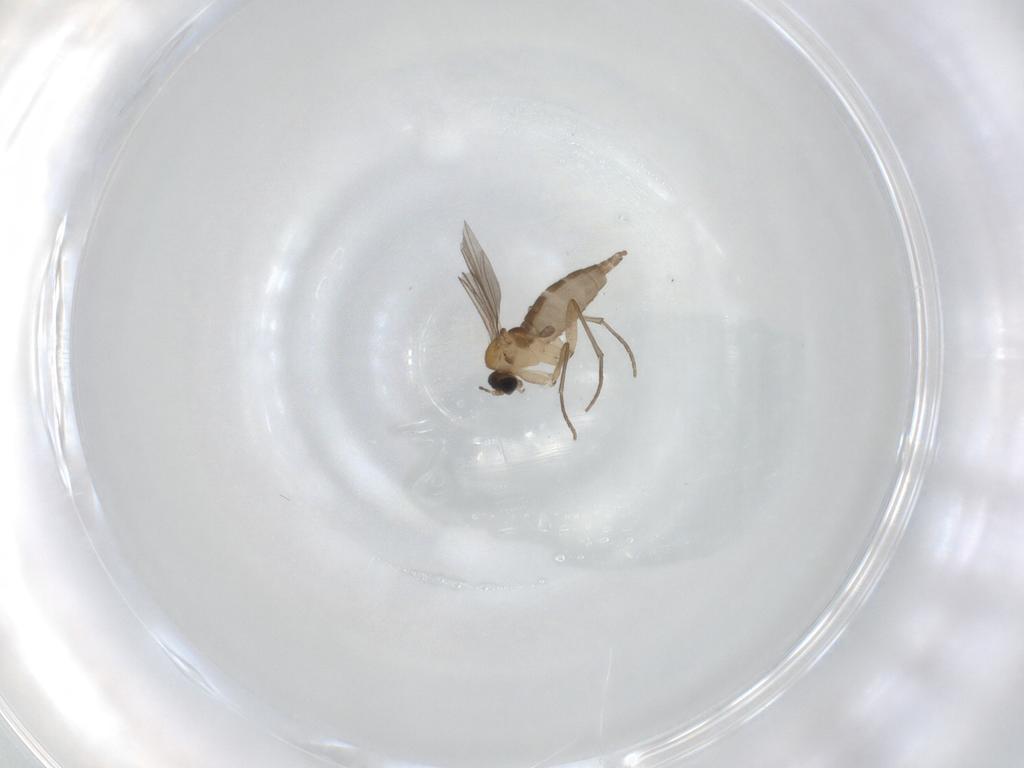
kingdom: Animalia
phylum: Arthropoda
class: Insecta
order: Diptera
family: Sciaridae
